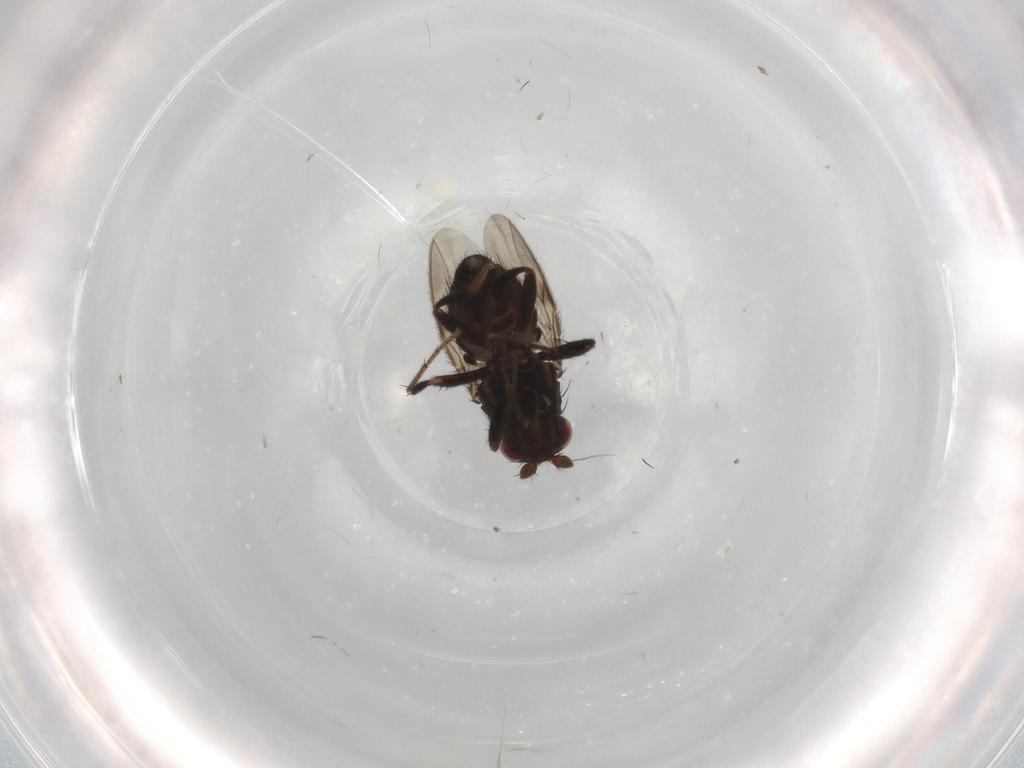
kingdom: Animalia
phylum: Arthropoda
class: Insecta
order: Diptera
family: Sphaeroceridae
